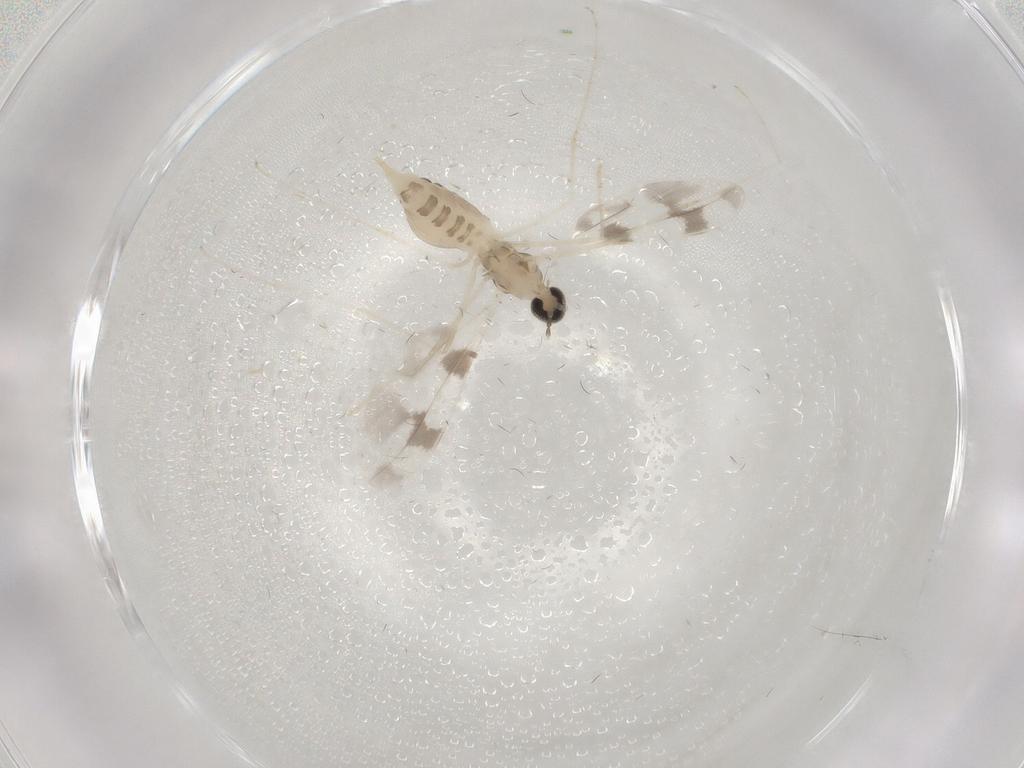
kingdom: Animalia
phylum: Arthropoda
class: Insecta
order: Diptera
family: Cecidomyiidae
